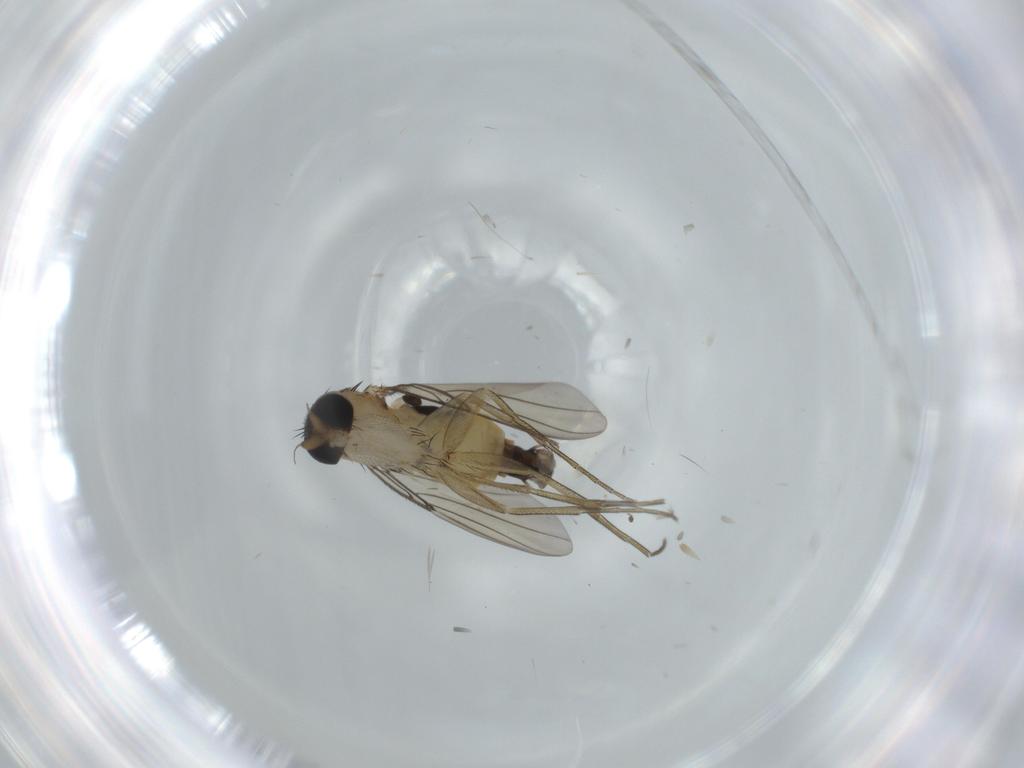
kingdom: Animalia
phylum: Arthropoda
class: Insecta
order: Diptera
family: Phoridae
